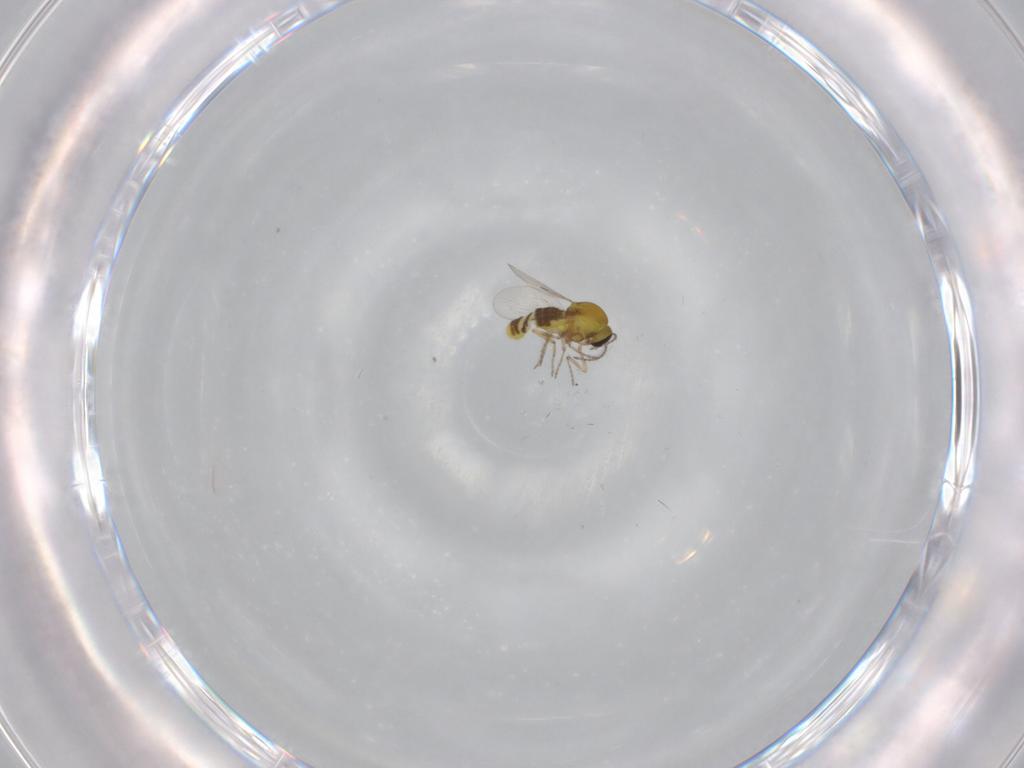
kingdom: Animalia
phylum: Arthropoda
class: Insecta
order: Diptera
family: Ceratopogonidae
